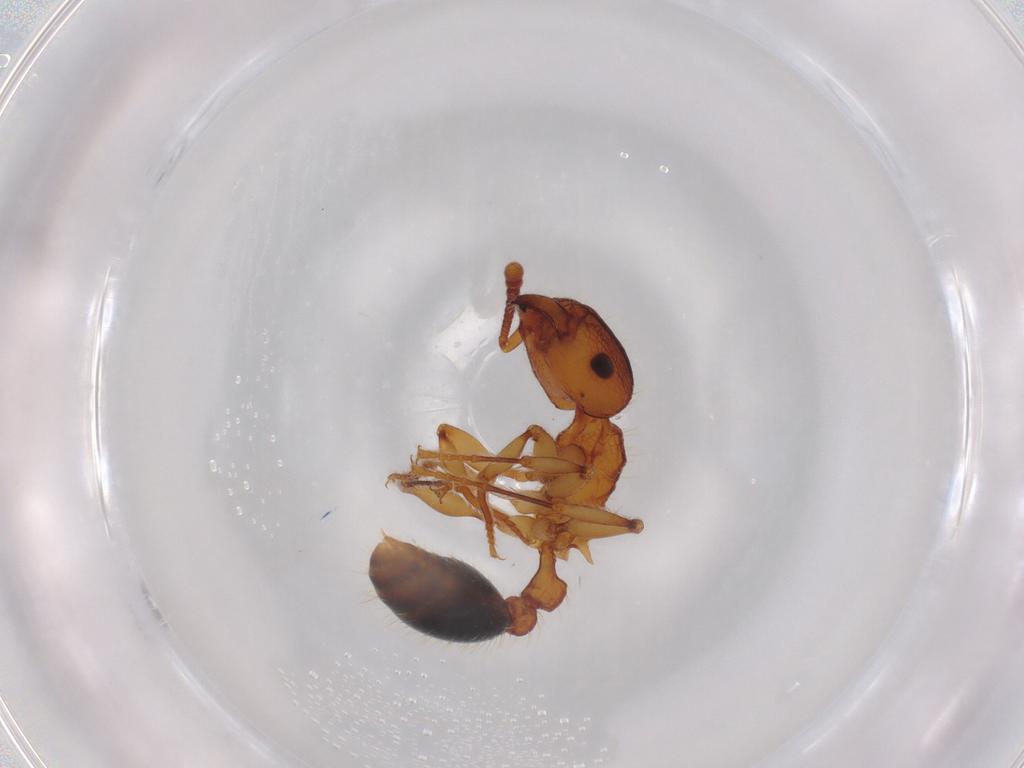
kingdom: Animalia
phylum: Arthropoda
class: Insecta
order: Hymenoptera
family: Formicidae
